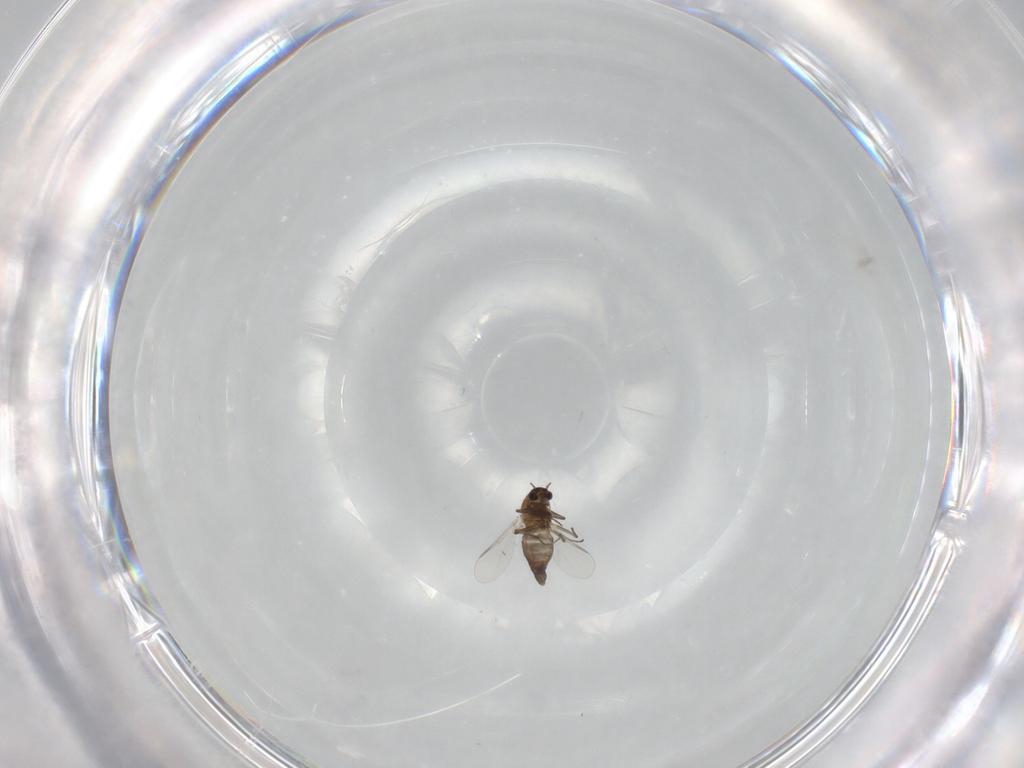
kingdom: Animalia
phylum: Arthropoda
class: Insecta
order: Diptera
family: Chironomidae
